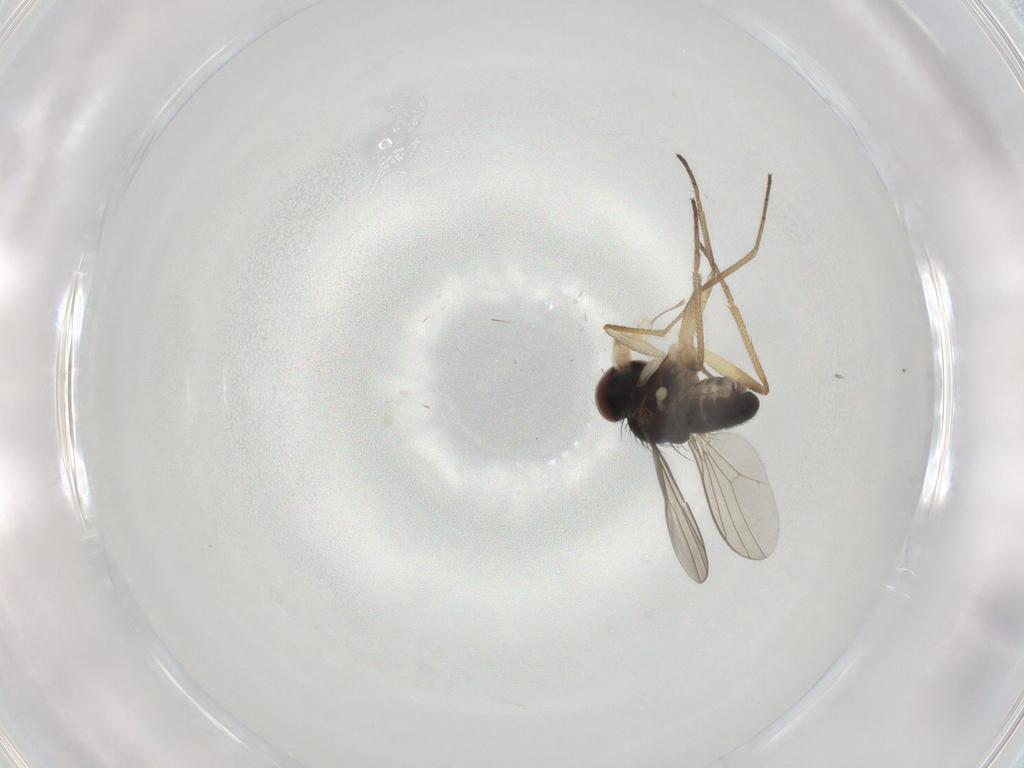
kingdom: Animalia
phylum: Arthropoda
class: Insecta
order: Diptera
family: Dolichopodidae
